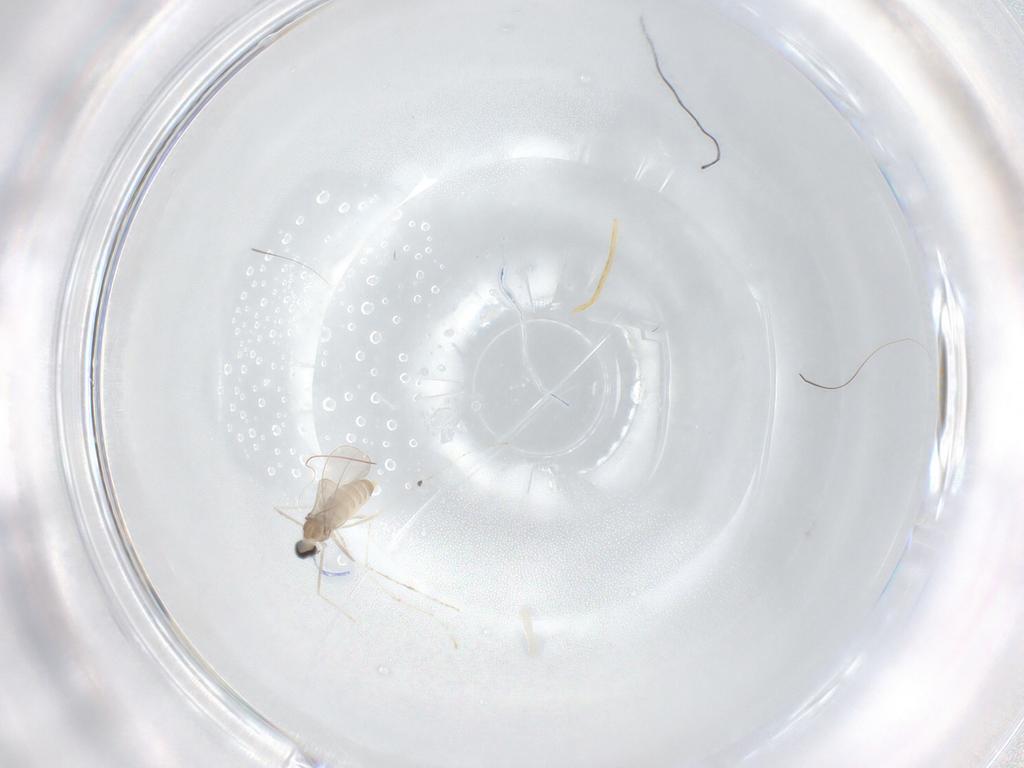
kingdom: Animalia
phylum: Arthropoda
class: Insecta
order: Diptera
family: Cecidomyiidae
